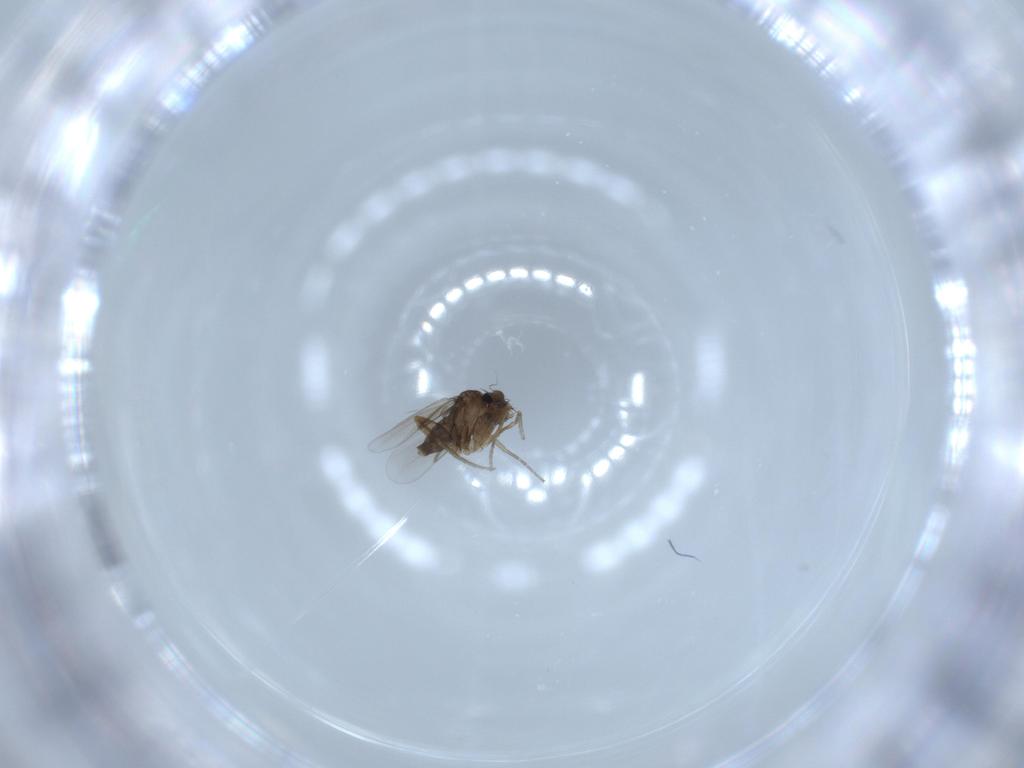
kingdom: Animalia
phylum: Arthropoda
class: Insecta
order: Diptera
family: Phoridae
